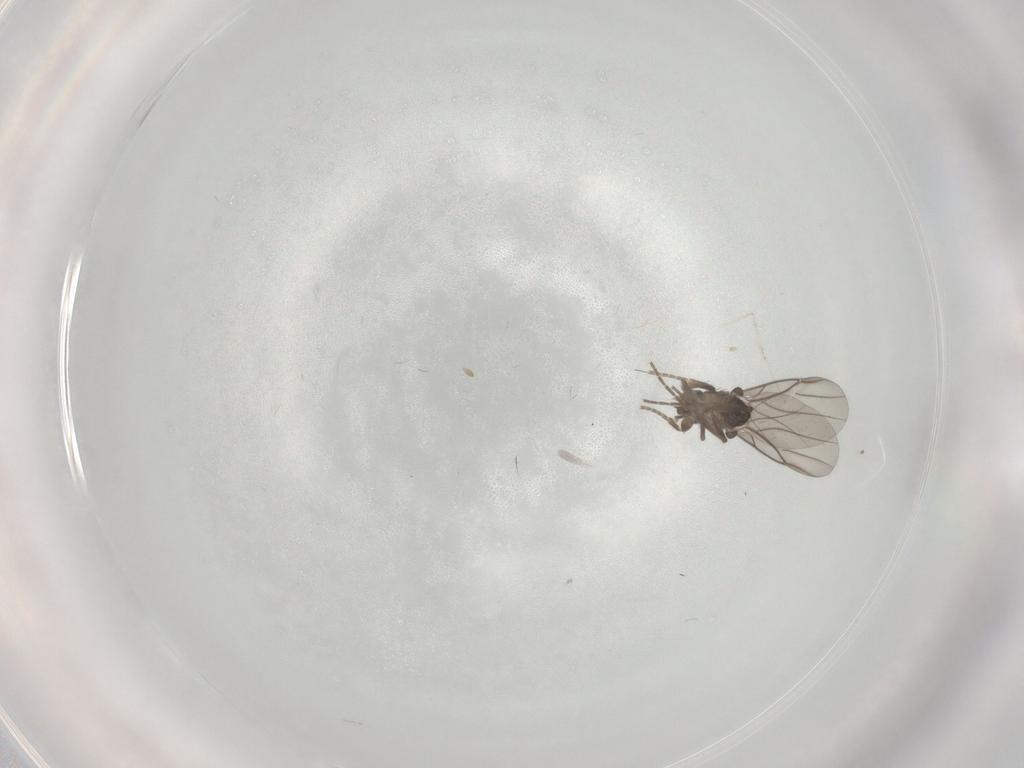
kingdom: Animalia
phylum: Arthropoda
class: Insecta
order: Diptera
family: Cecidomyiidae
